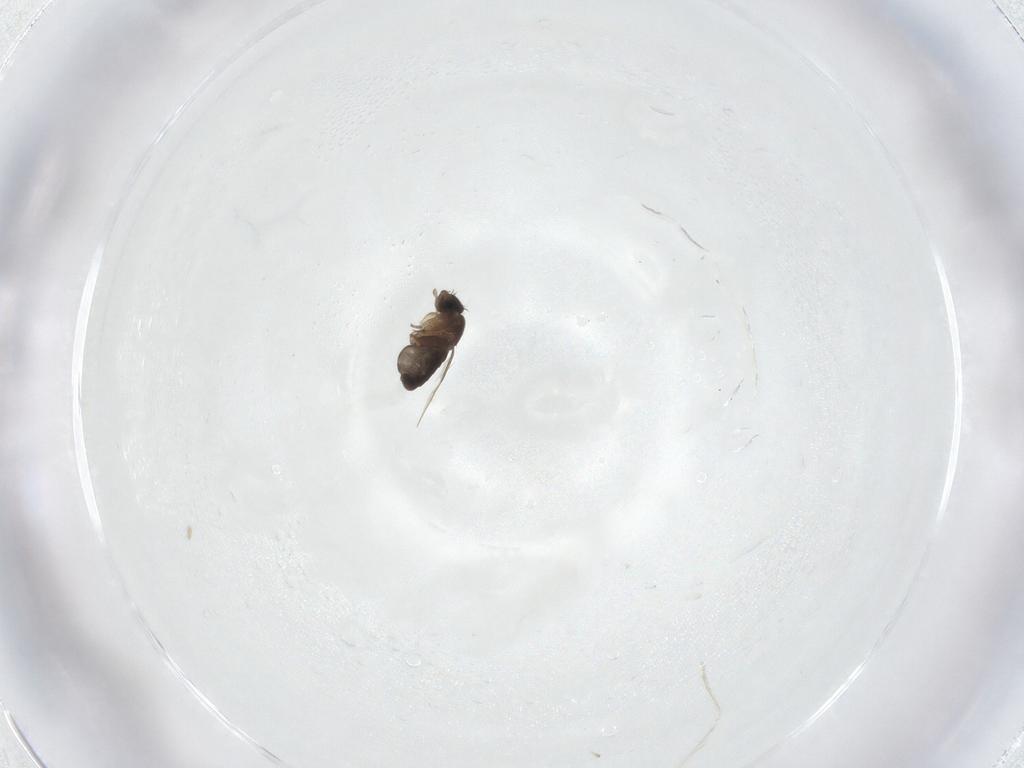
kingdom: Animalia
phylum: Arthropoda
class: Insecta
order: Diptera
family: Phoridae
